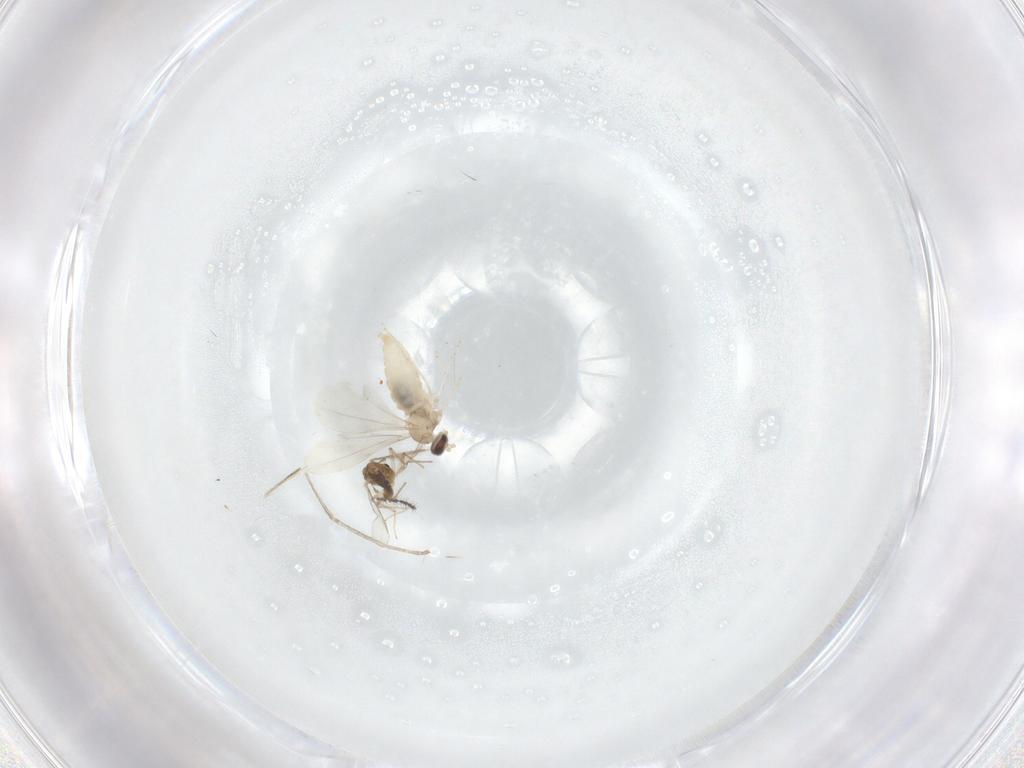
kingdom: Animalia
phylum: Arthropoda
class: Insecta
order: Diptera
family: Cecidomyiidae
